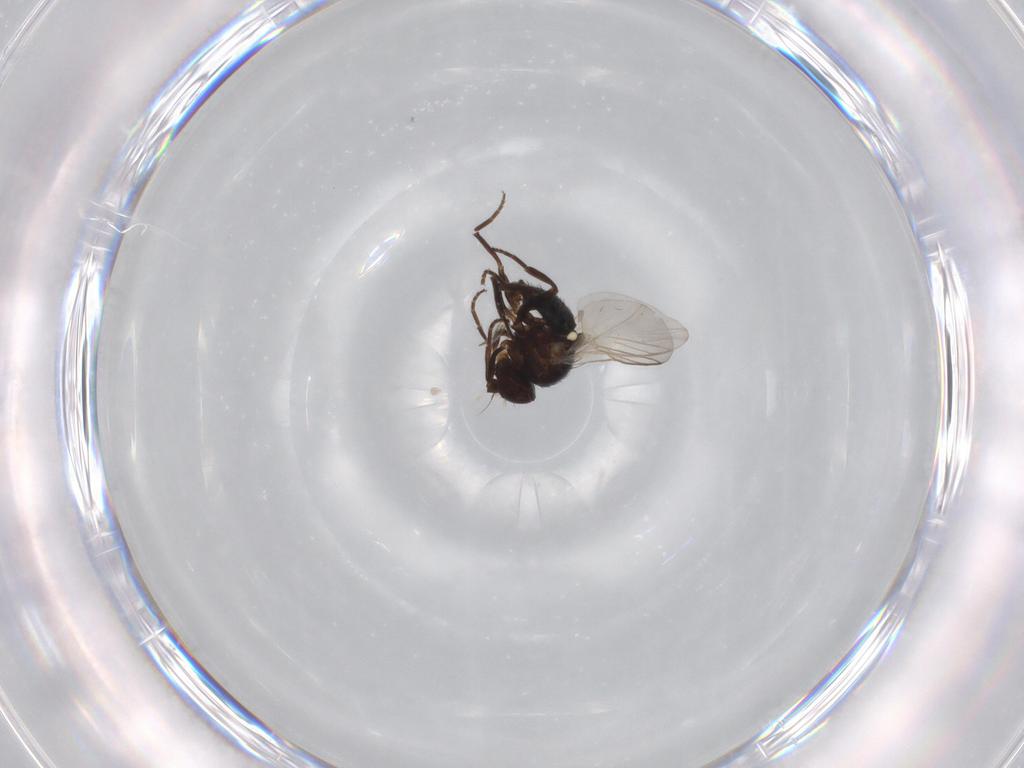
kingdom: Animalia
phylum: Arthropoda
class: Insecta
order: Diptera
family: Ceratopogonidae
